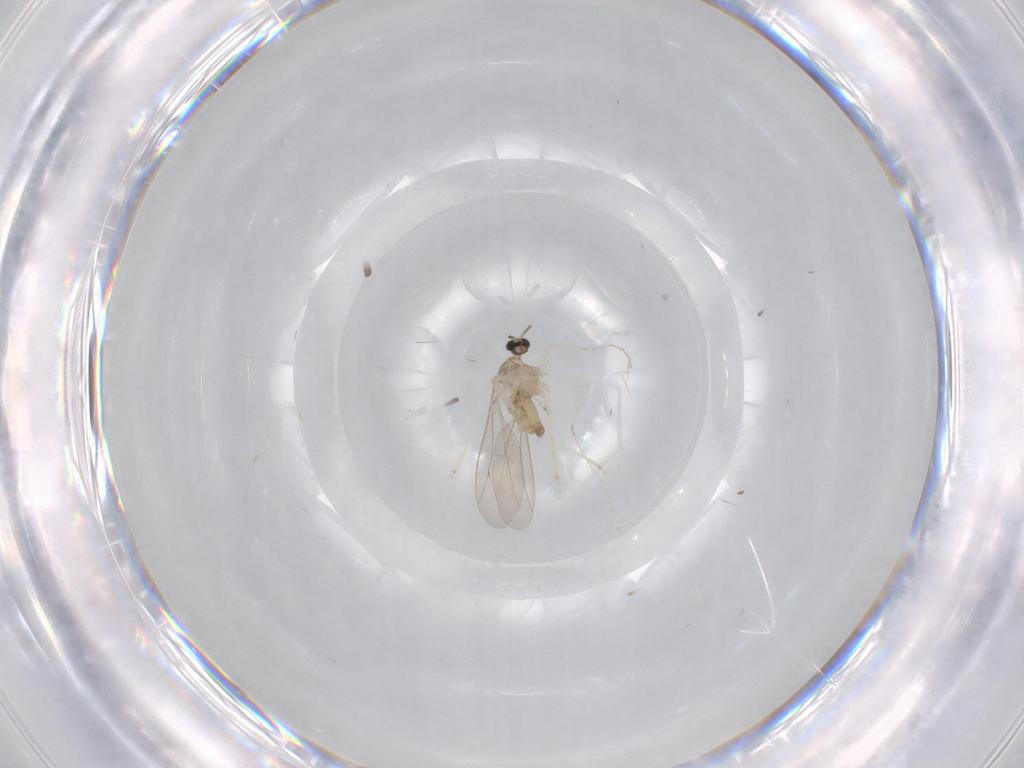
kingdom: Animalia
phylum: Arthropoda
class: Insecta
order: Diptera
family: Cecidomyiidae
